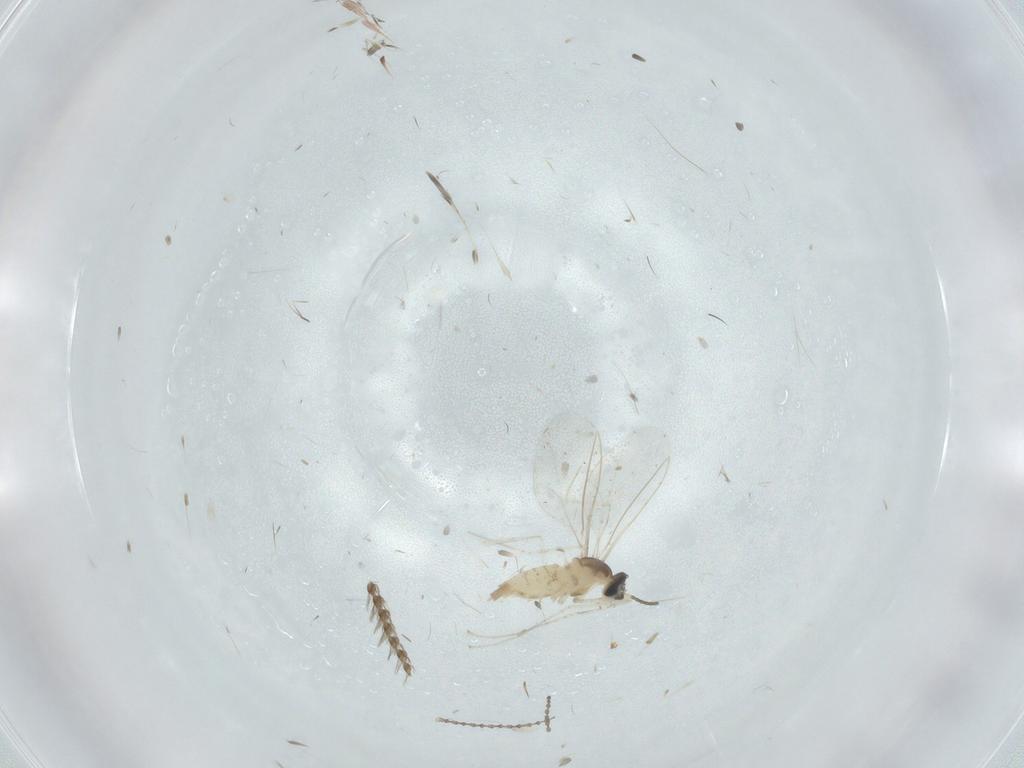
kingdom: Animalia
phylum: Arthropoda
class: Insecta
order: Diptera
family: Cecidomyiidae
